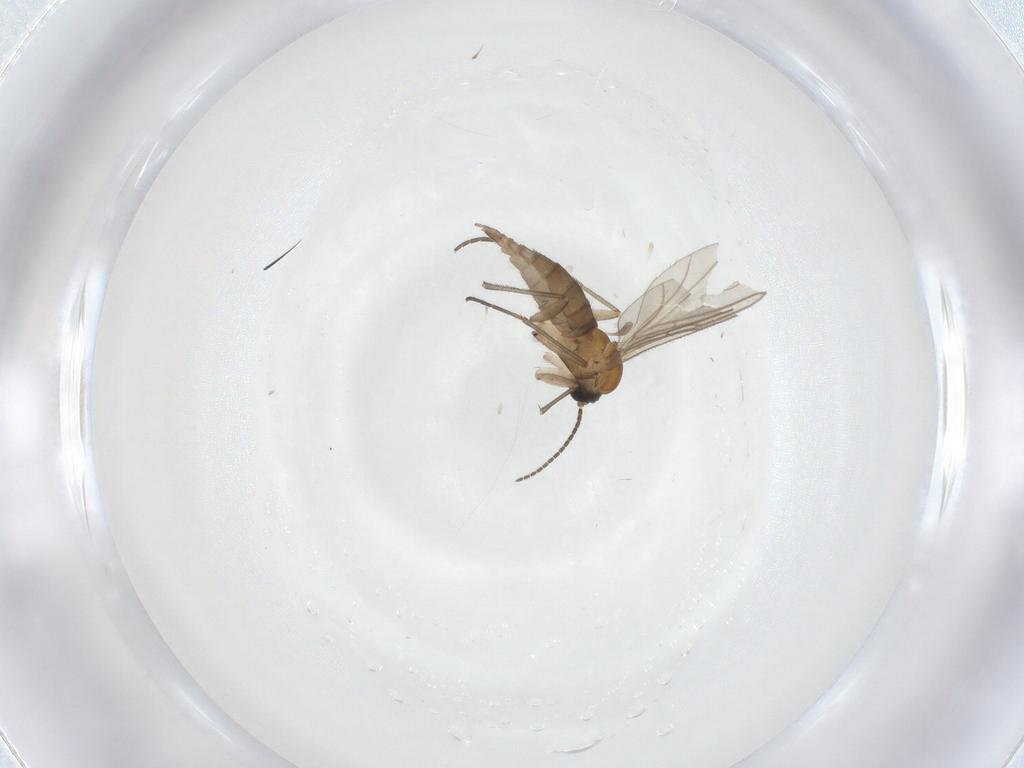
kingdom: Animalia
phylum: Arthropoda
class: Insecta
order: Diptera
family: Sciaridae
